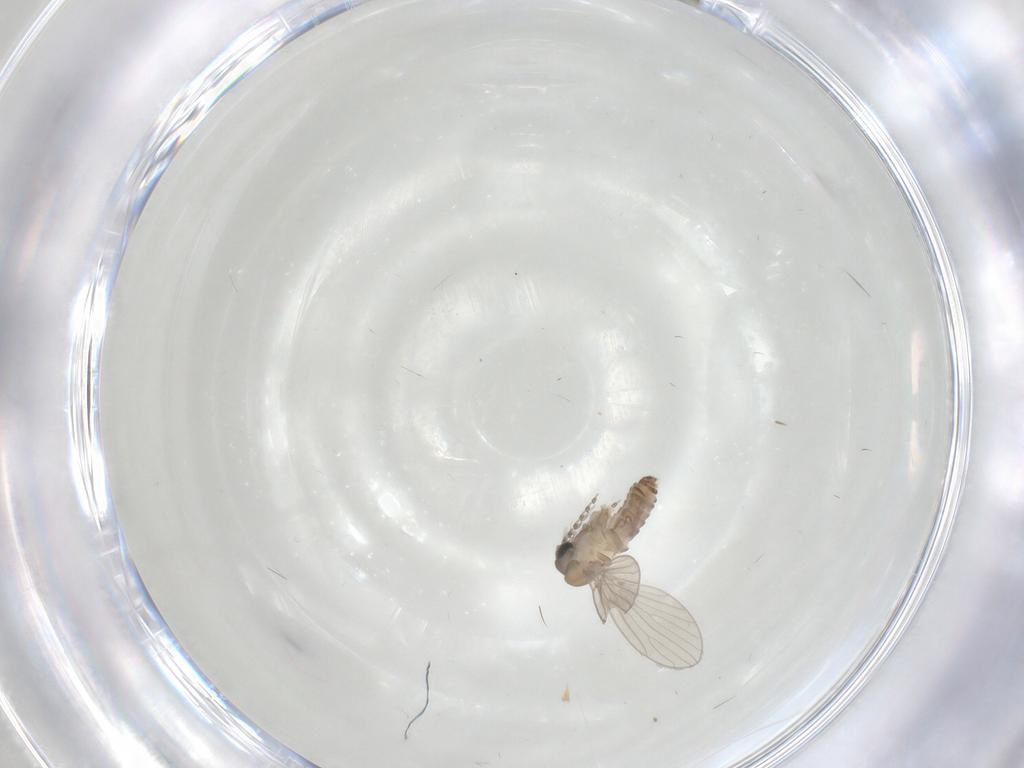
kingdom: Animalia
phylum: Arthropoda
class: Insecta
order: Diptera
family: Psychodidae
